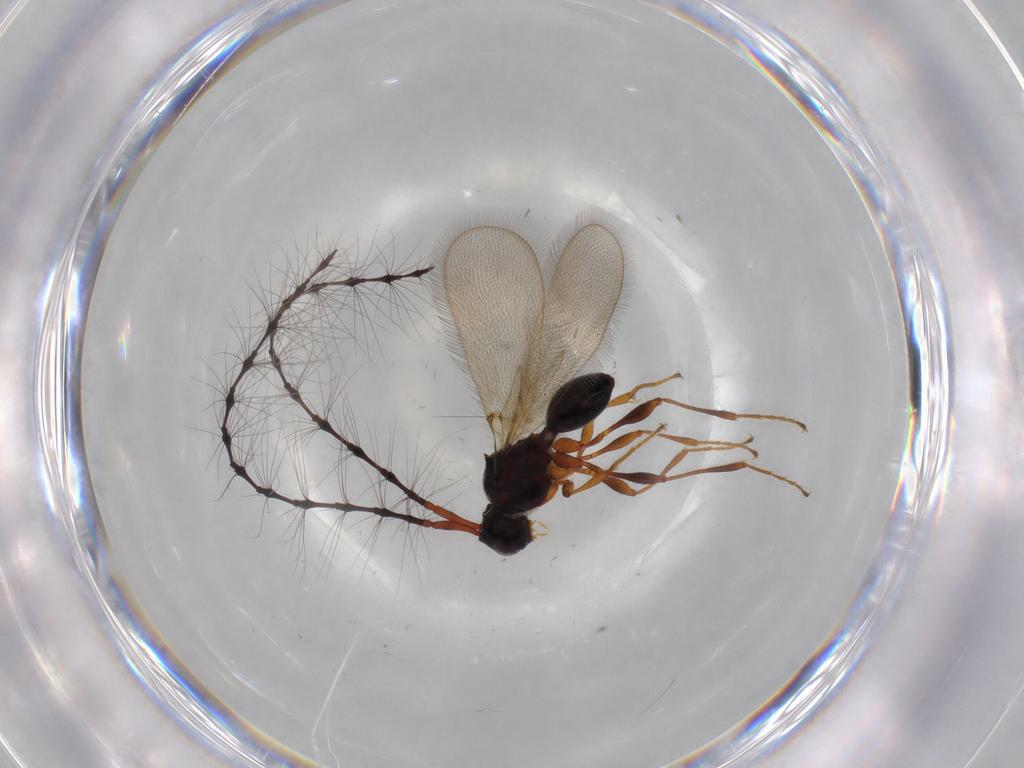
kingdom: Animalia
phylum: Arthropoda
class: Insecta
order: Hymenoptera
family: Diapriidae
